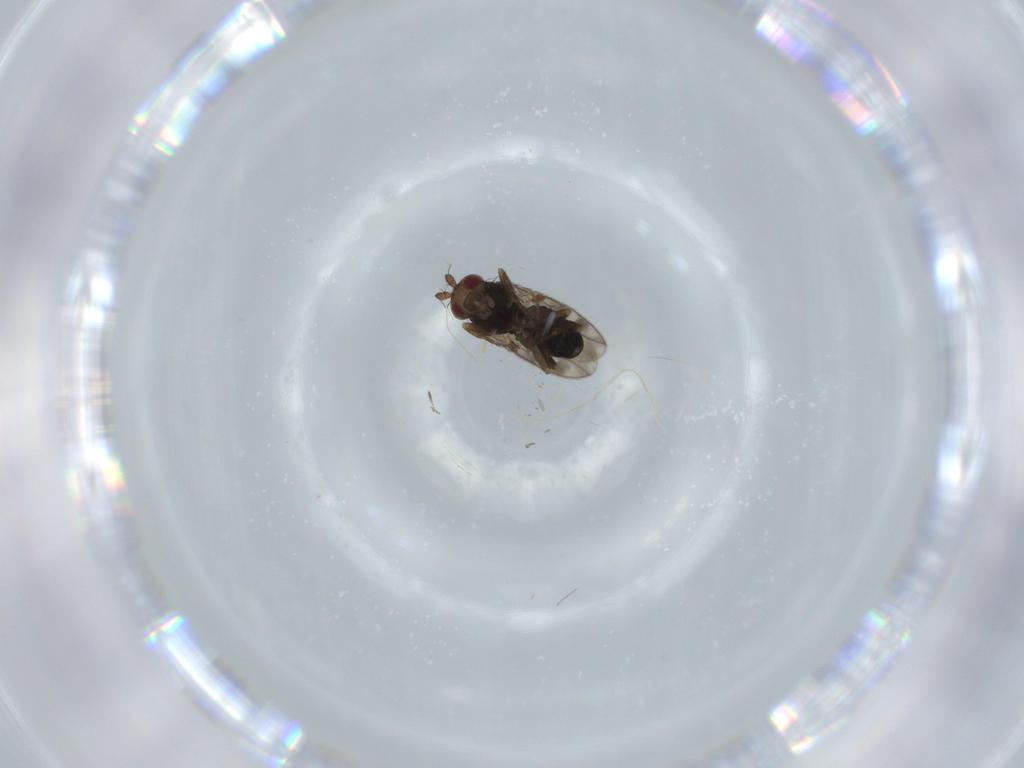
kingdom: Animalia
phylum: Arthropoda
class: Insecta
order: Diptera
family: Sphaeroceridae
